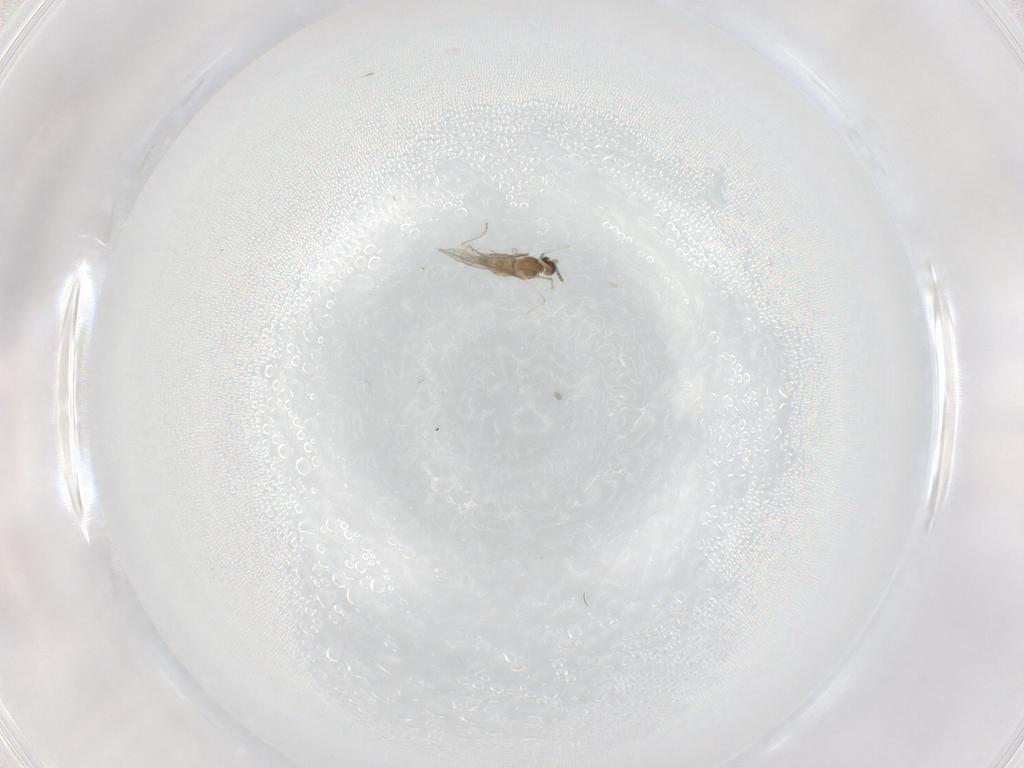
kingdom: Animalia
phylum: Arthropoda
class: Insecta
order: Diptera
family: Cecidomyiidae
